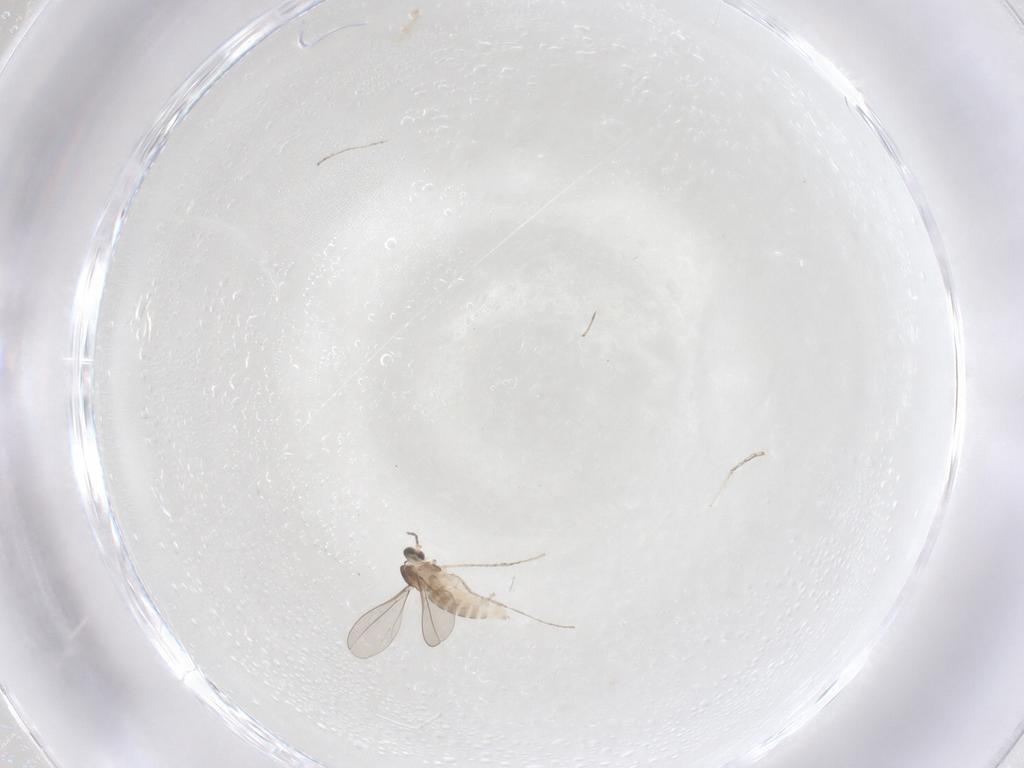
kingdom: Animalia
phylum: Arthropoda
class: Insecta
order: Diptera
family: Cecidomyiidae
